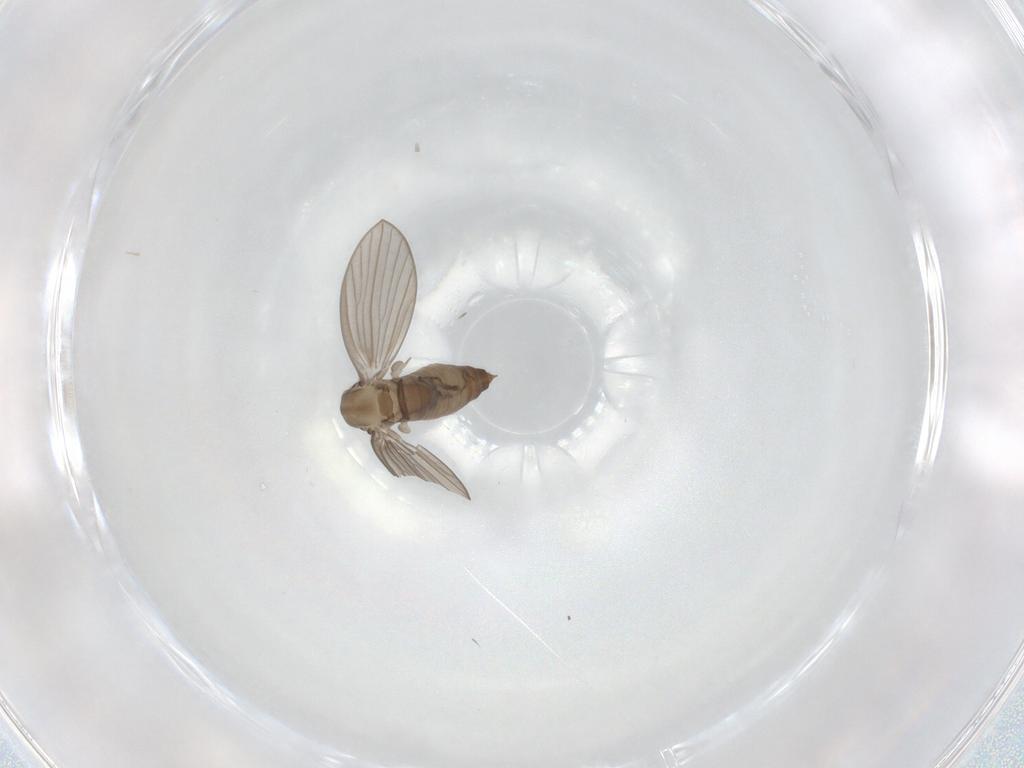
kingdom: Animalia
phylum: Arthropoda
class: Insecta
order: Diptera
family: Psychodidae
